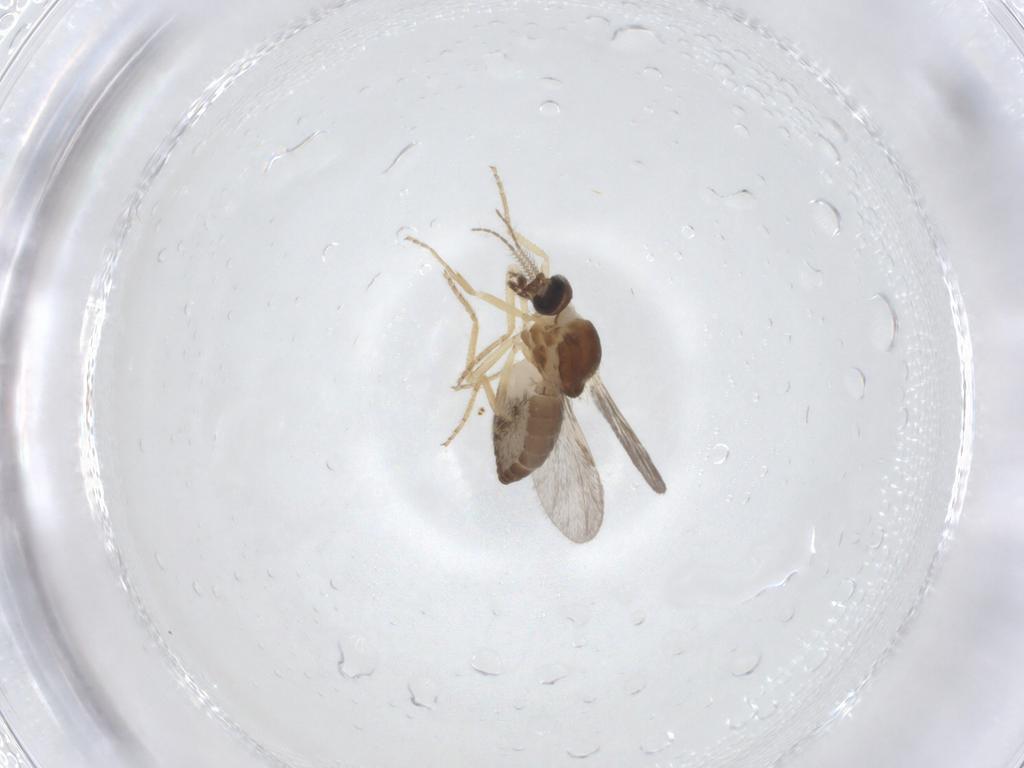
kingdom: Animalia
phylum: Arthropoda
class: Insecta
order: Diptera
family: Ceratopogonidae
